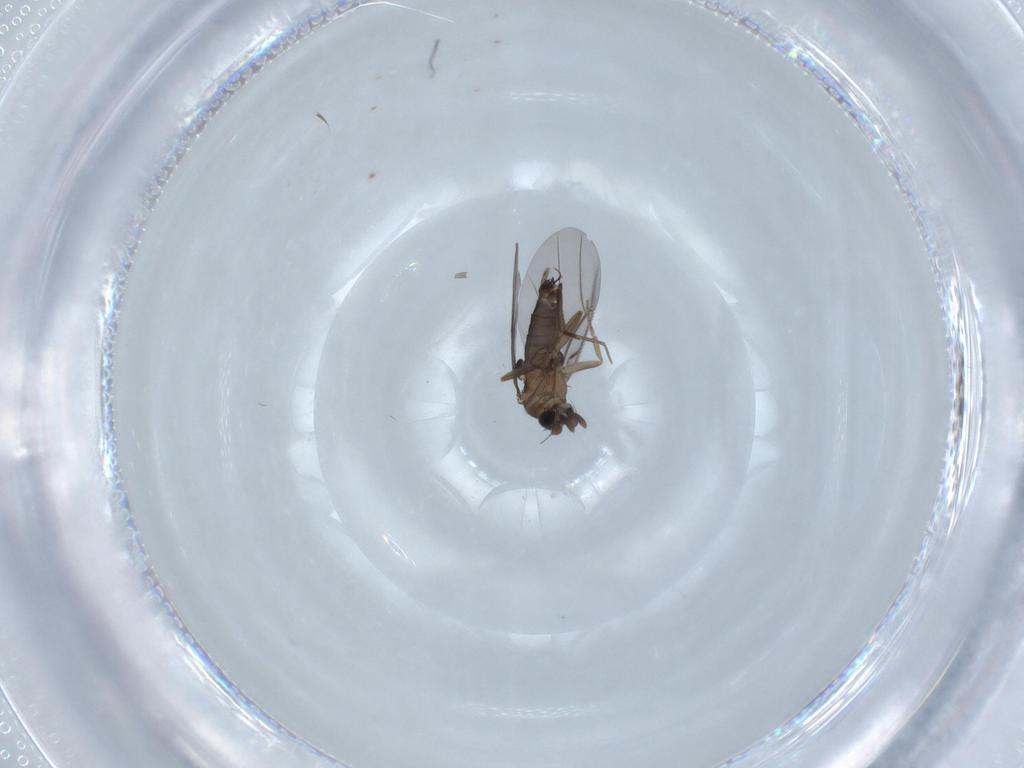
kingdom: Animalia
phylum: Arthropoda
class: Insecta
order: Diptera
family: Phoridae
